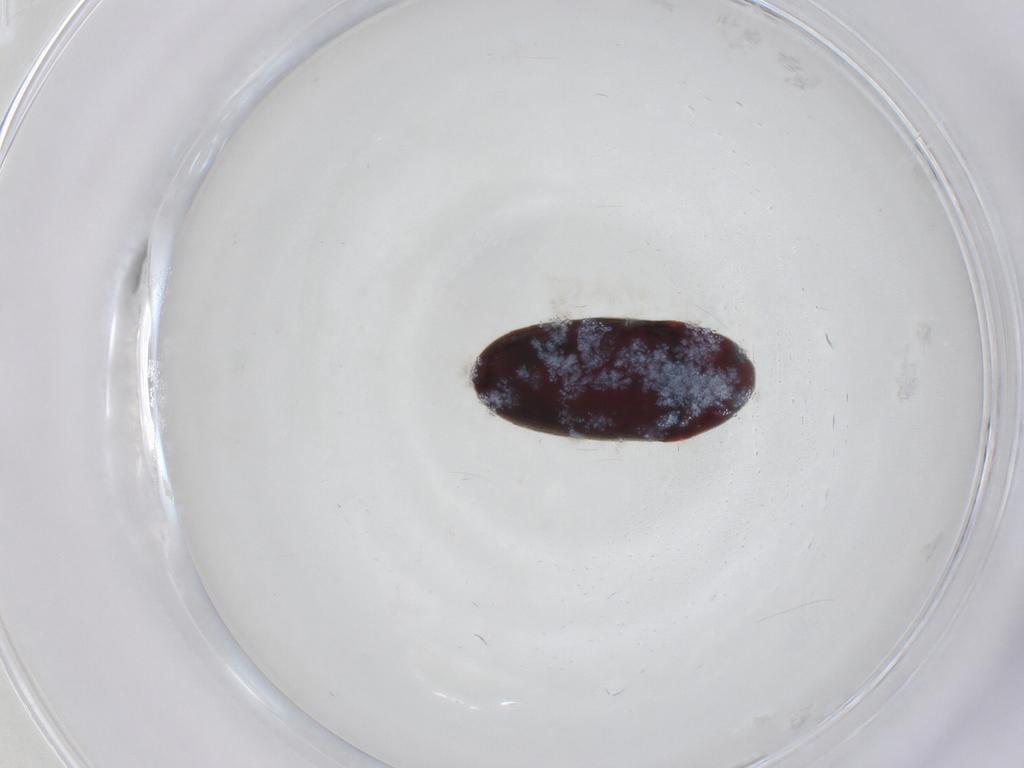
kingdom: Animalia
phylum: Arthropoda
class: Insecta
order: Coleoptera
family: Throscidae
